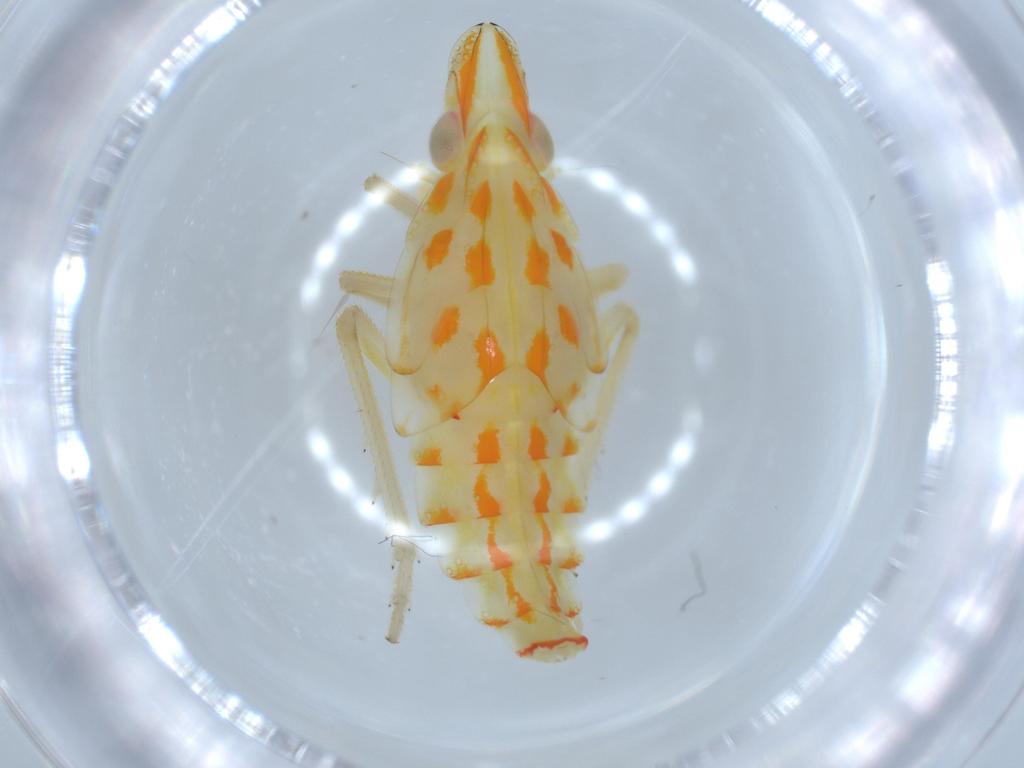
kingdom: Animalia
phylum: Arthropoda
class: Insecta
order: Hemiptera
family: Tropiduchidae
